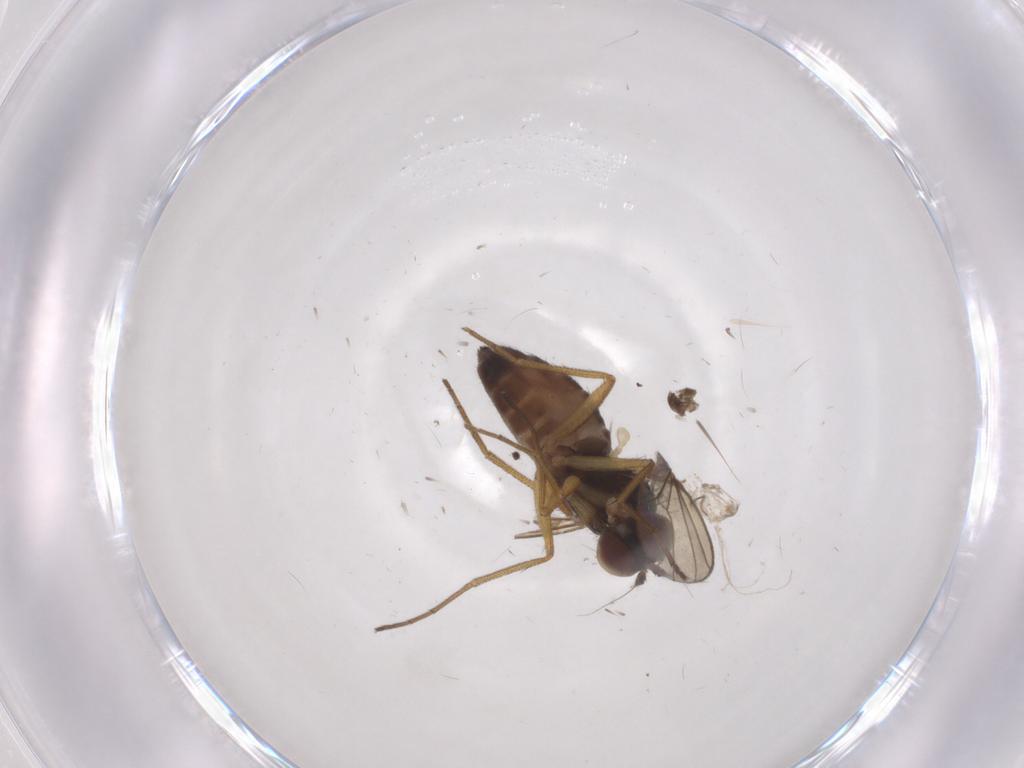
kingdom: Animalia
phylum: Arthropoda
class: Insecta
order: Diptera
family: Dolichopodidae
